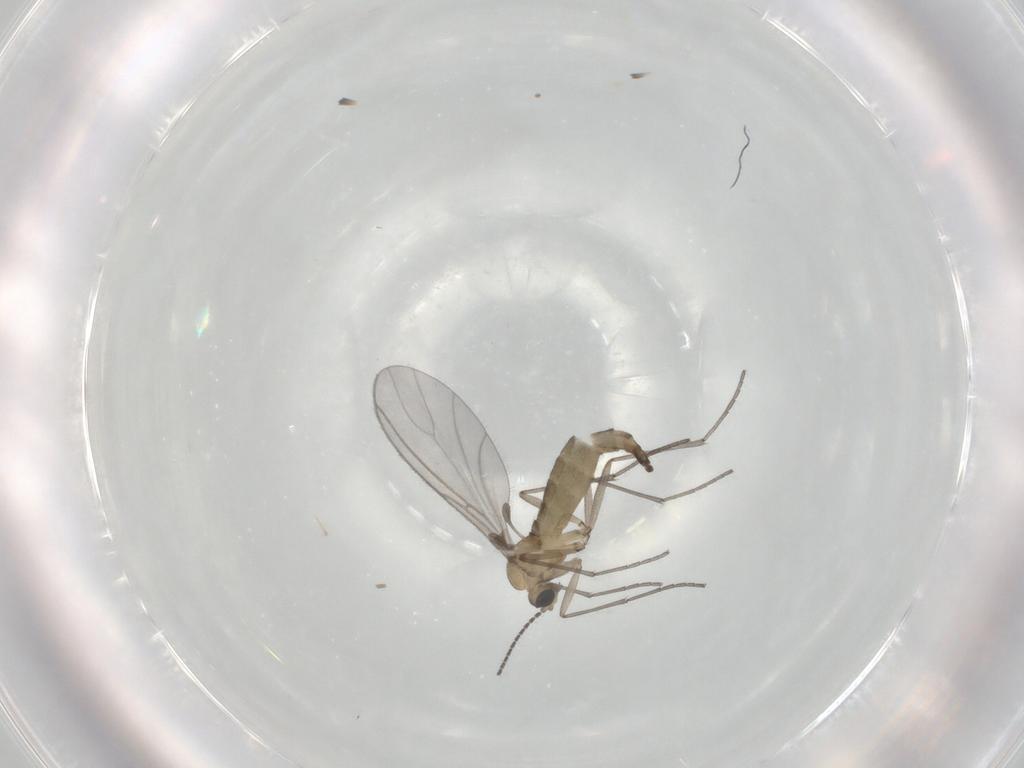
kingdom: Animalia
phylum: Arthropoda
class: Insecta
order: Diptera
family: Sciaridae
